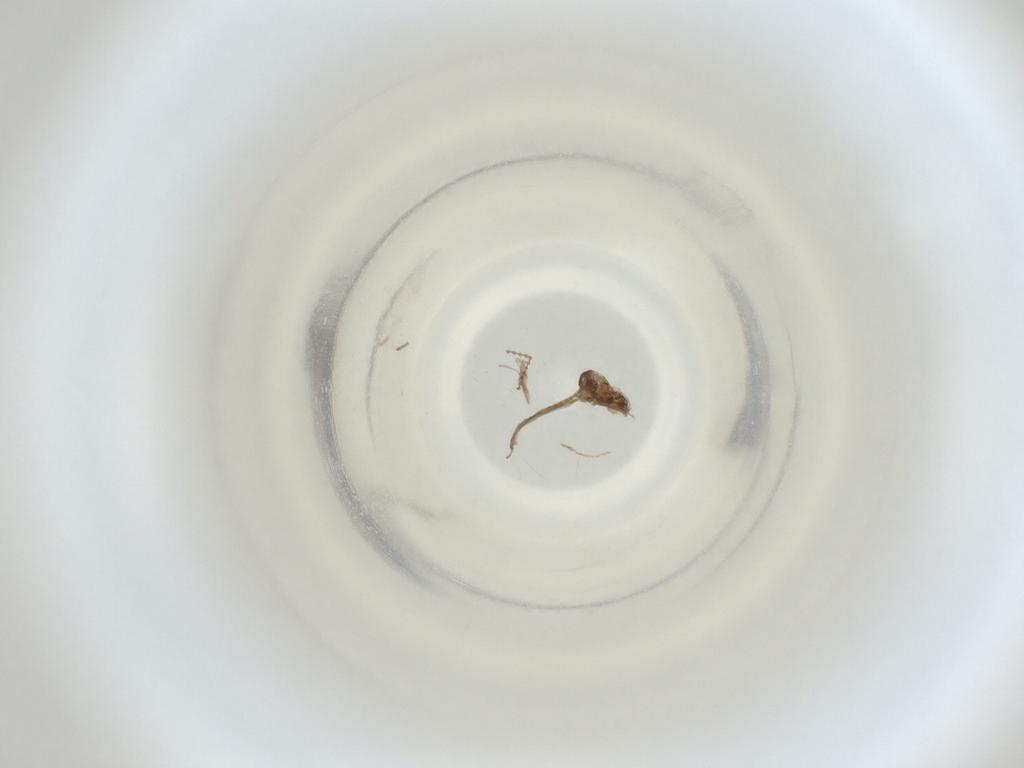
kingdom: Animalia
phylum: Arthropoda
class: Insecta
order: Diptera
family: Cecidomyiidae
